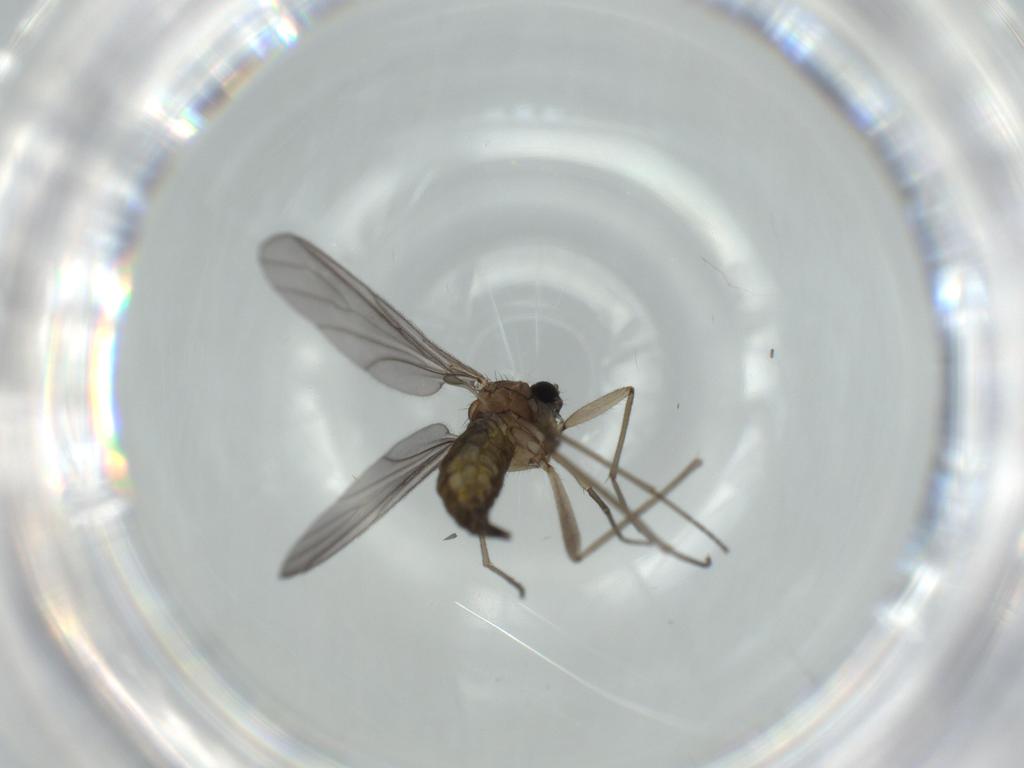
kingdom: Animalia
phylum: Arthropoda
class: Insecta
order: Diptera
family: Sciaridae
